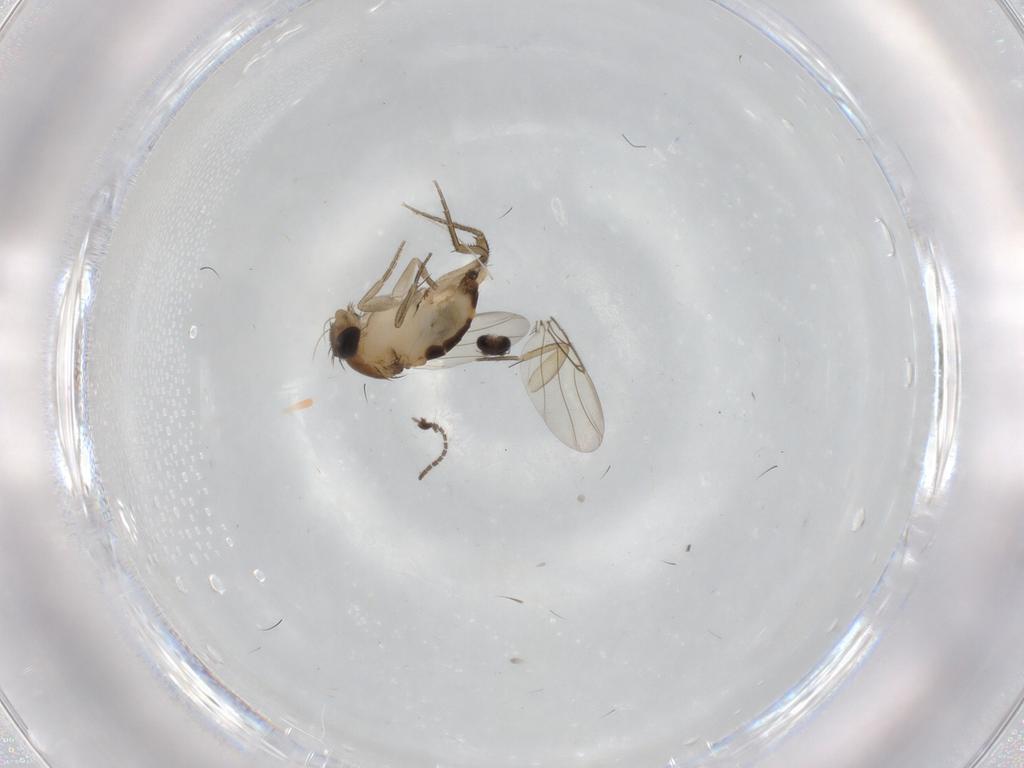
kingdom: Animalia
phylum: Arthropoda
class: Insecta
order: Diptera
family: Phoridae
